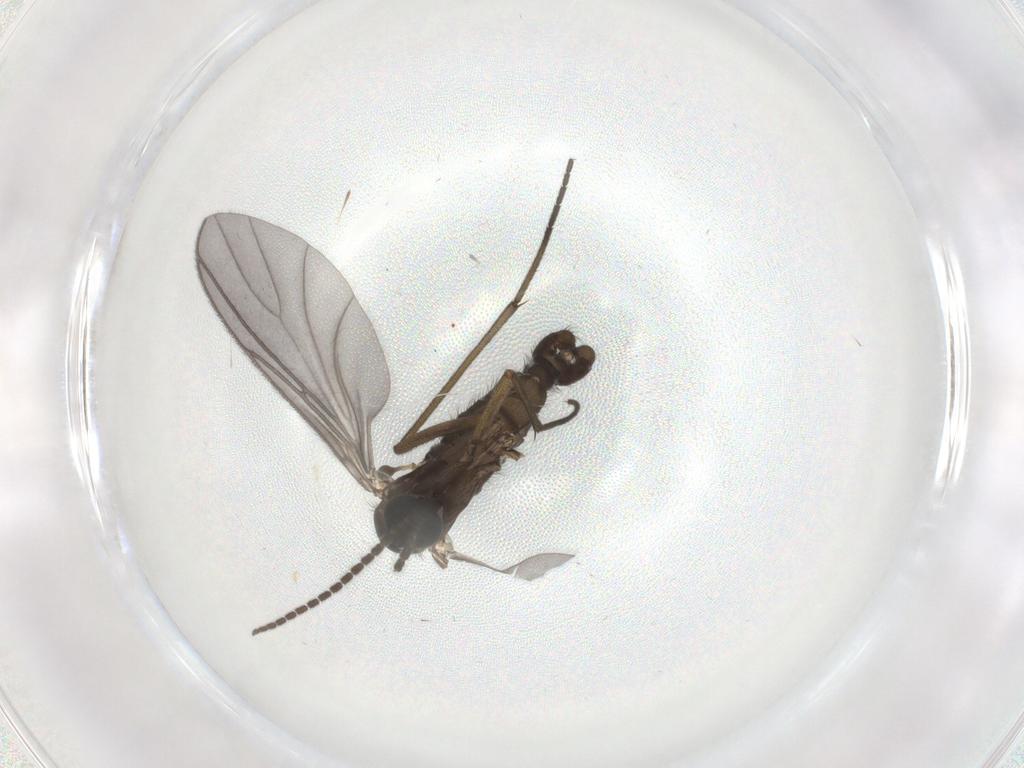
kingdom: Animalia
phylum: Arthropoda
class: Insecta
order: Diptera
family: Sciaridae
